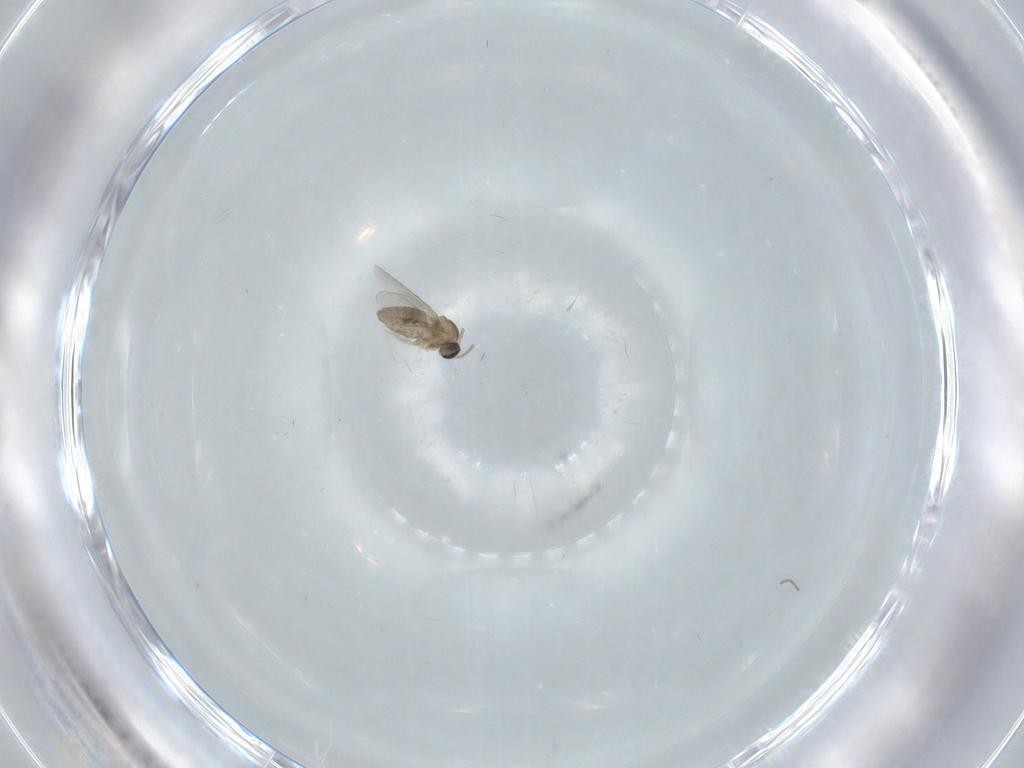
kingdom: Animalia
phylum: Arthropoda
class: Insecta
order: Diptera
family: Cecidomyiidae
